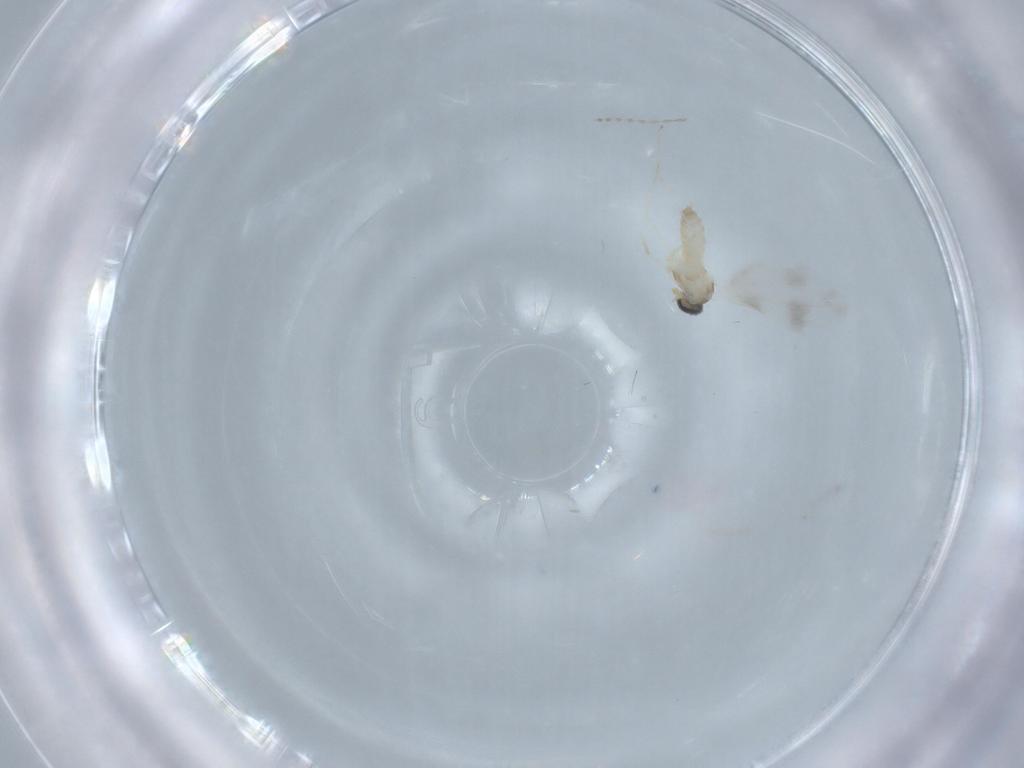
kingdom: Animalia
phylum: Arthropoda
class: Insecta
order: Diptera
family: Cecidomyiidae
